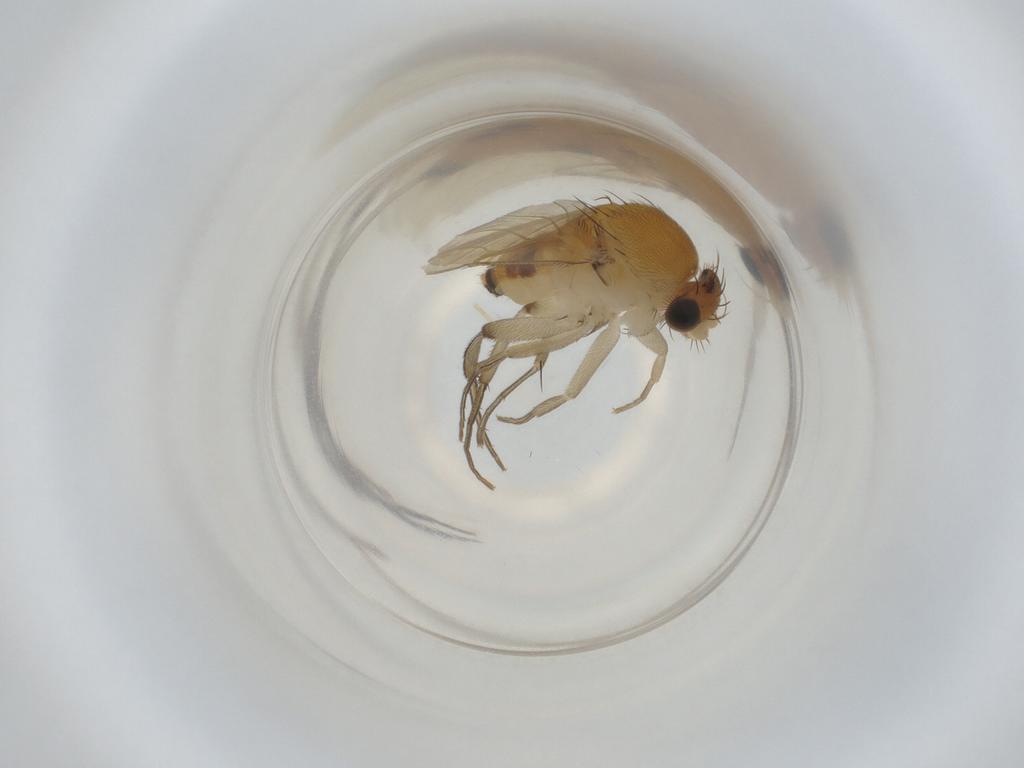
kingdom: Animalia
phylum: Arthropoda
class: Insecta
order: Diptera
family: Phoridae
